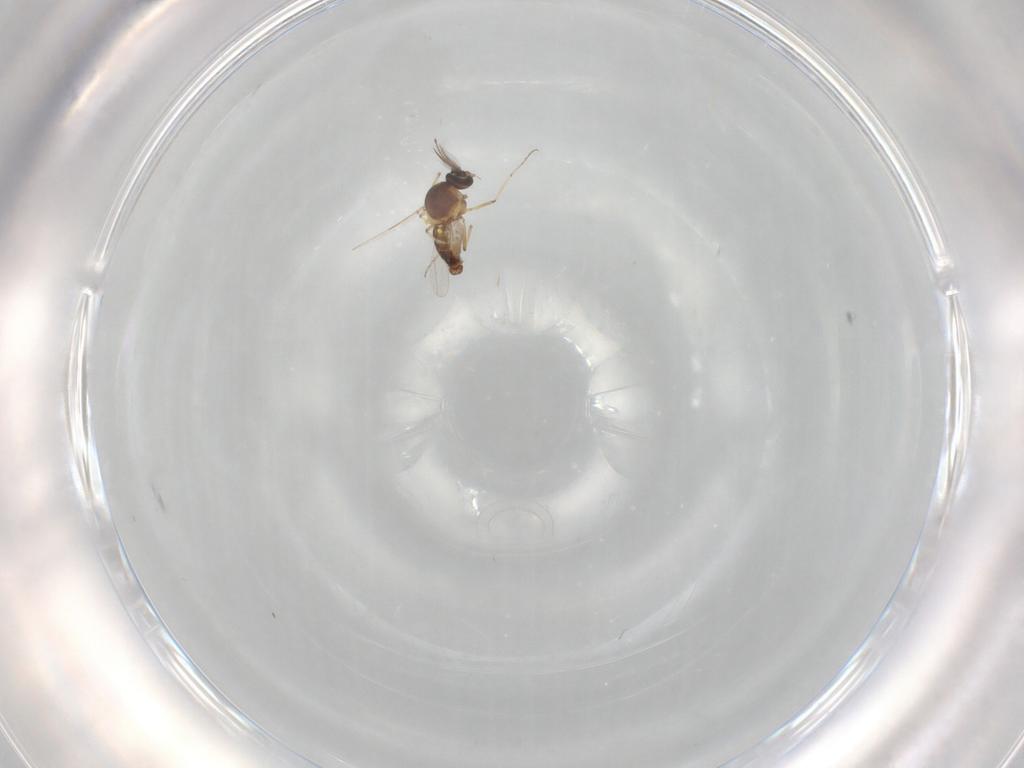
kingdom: Animalia
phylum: Arthropoda
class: Insecta
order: Diptera
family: Ceratopogonidae
